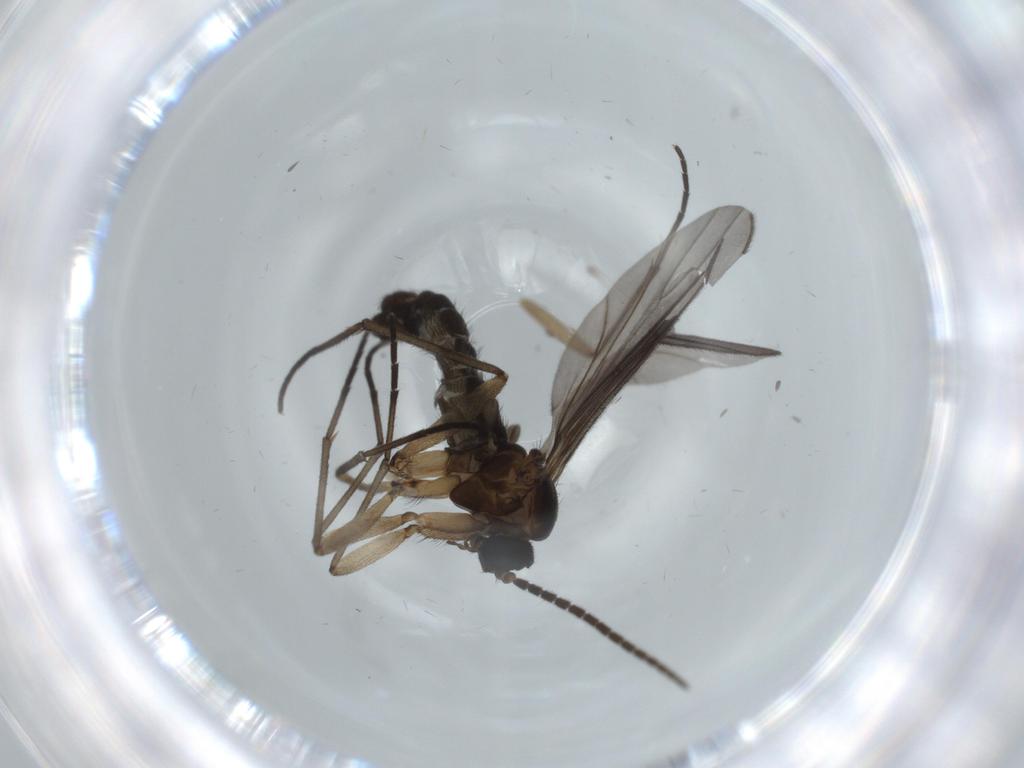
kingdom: Animalia
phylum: Arthropoda
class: Insecta
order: Diptera
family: Sciaridae
